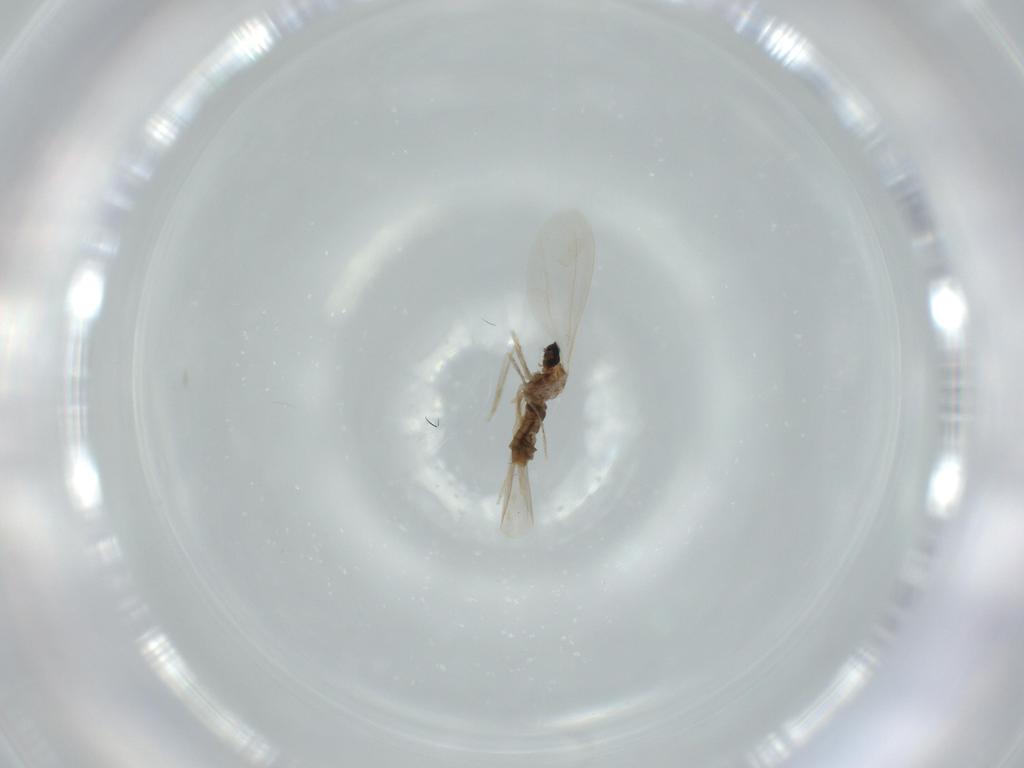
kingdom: Animalia
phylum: Arthropoda
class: Insecta
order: Diptera
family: Cecidomyiidae
